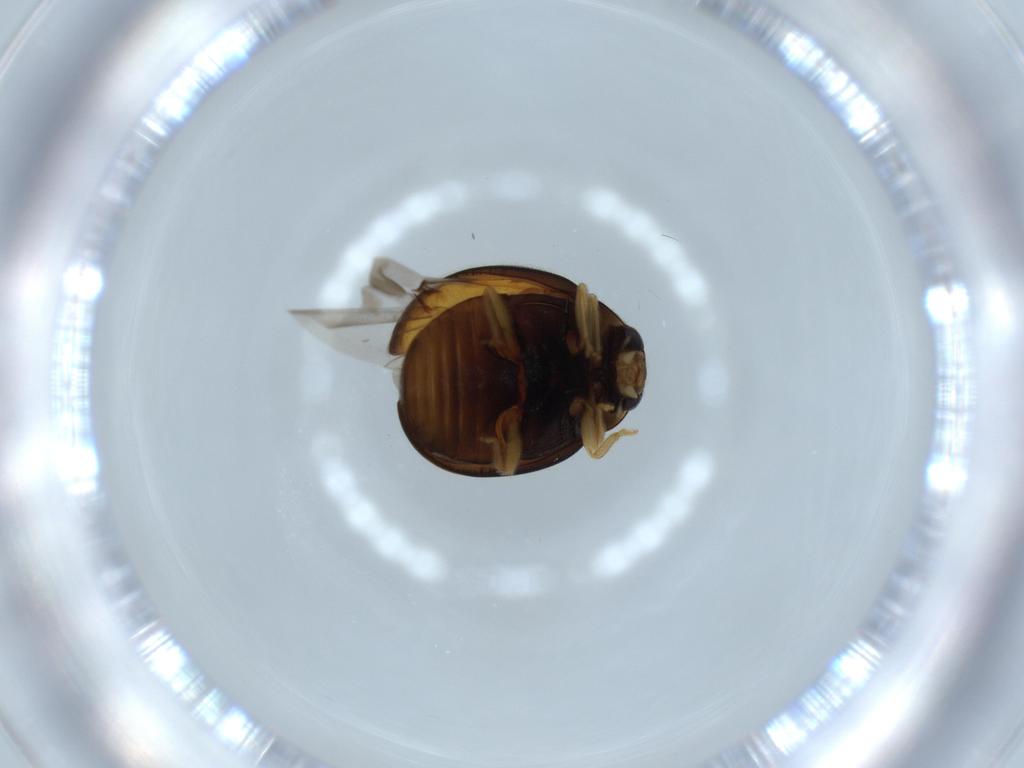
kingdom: Animalia
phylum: Arthropoda
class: Insecta
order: Coleoptera
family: Coccinellidae
